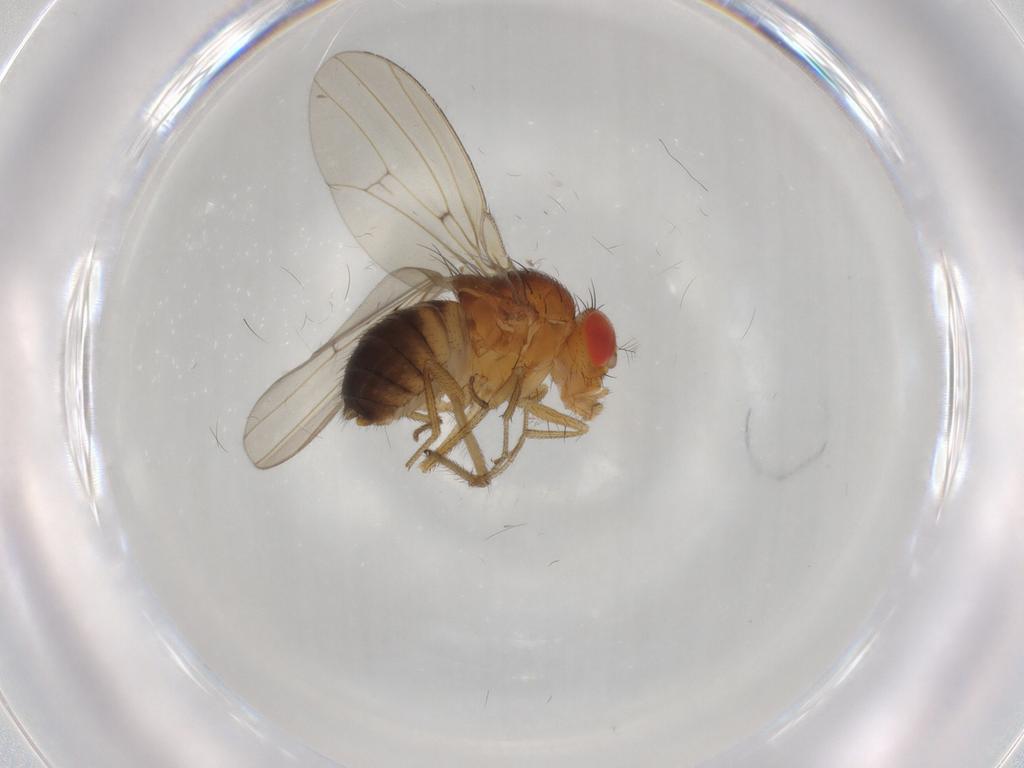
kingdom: Animalia
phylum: Arthropoda
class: Insecta
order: Diptera
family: Drosophilidae
